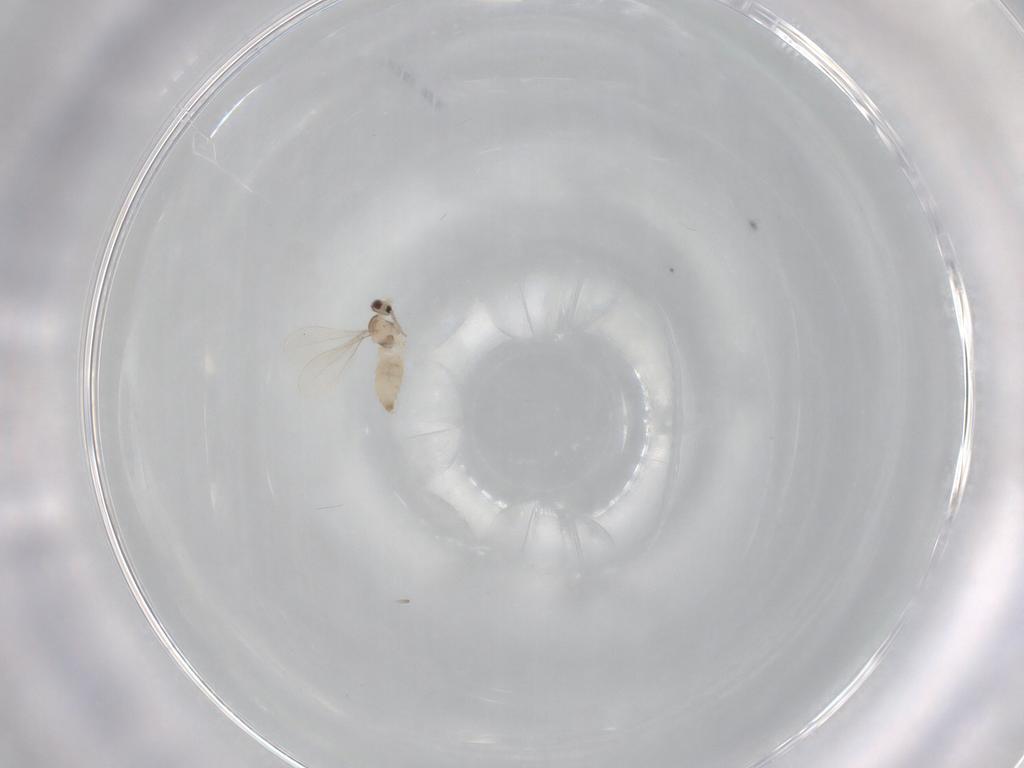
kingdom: Animalia
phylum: Arthropoda
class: Insecta
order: Diptera
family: Cecidomyiidae
